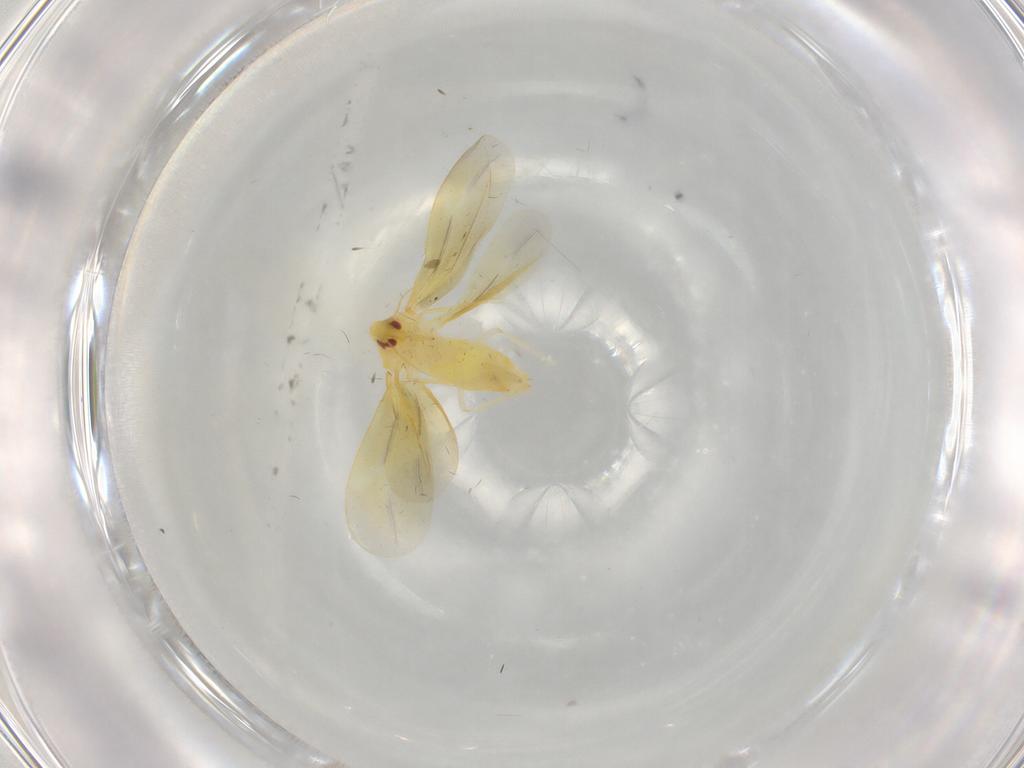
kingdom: Animalia
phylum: Arthropoda
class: Insecta
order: Hemiptera
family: Aleyrodidae
